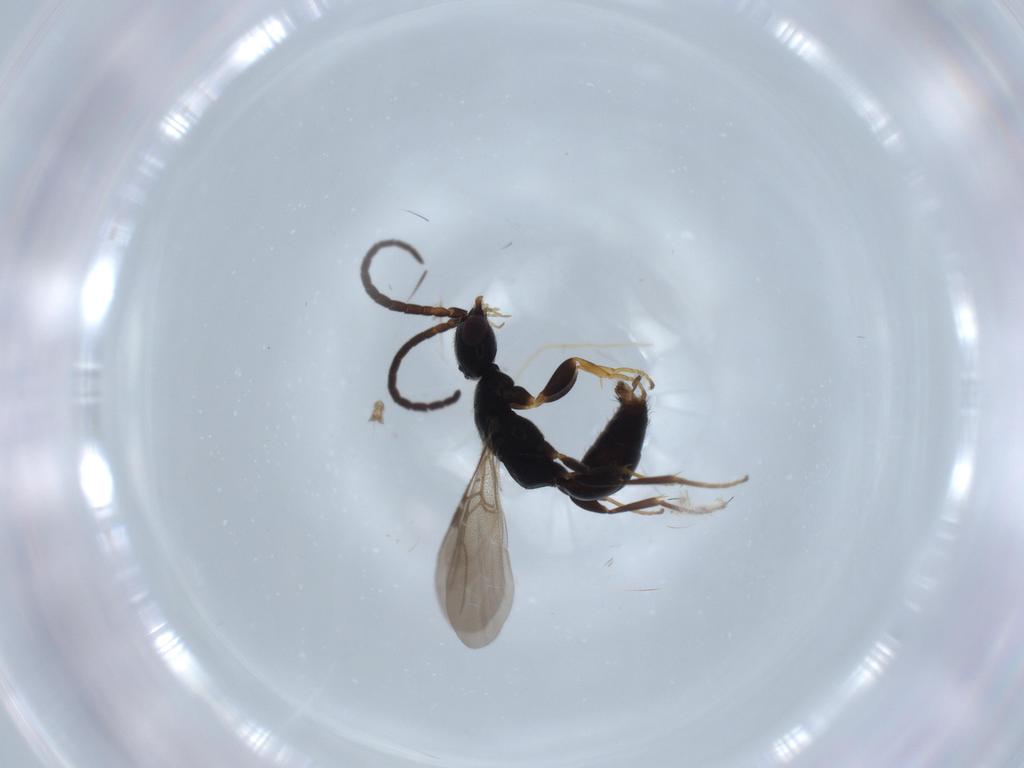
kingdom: Animalia
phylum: Arthropoda
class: Insecta
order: Hymenoptera
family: Bethylidae
